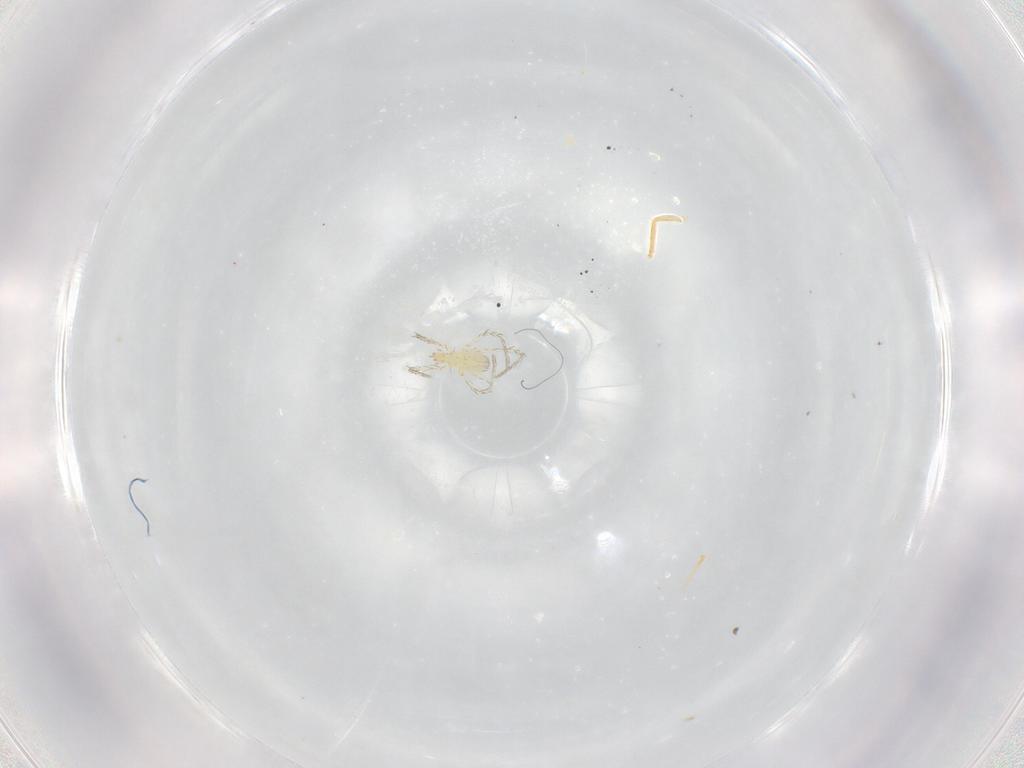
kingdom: Animalia
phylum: Arthropoda
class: Arachnida
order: Trombidiformes
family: Erythraeidae
